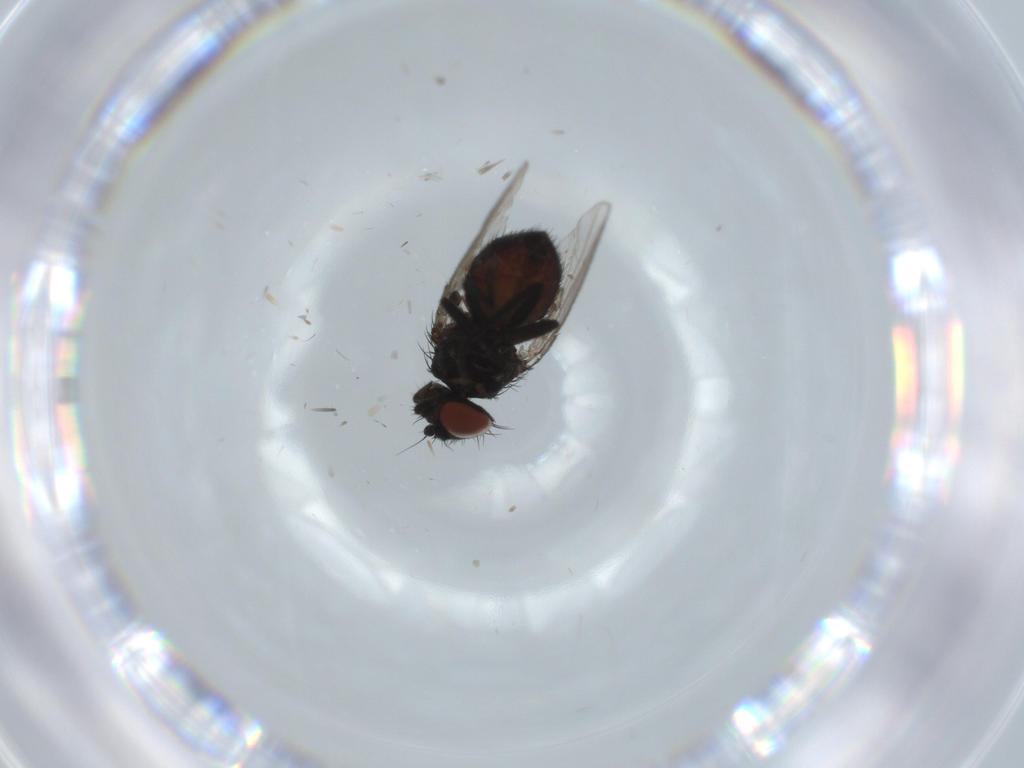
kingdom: Animalia
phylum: Arthropoda
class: Insecta
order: Diptera
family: Milichiidae
